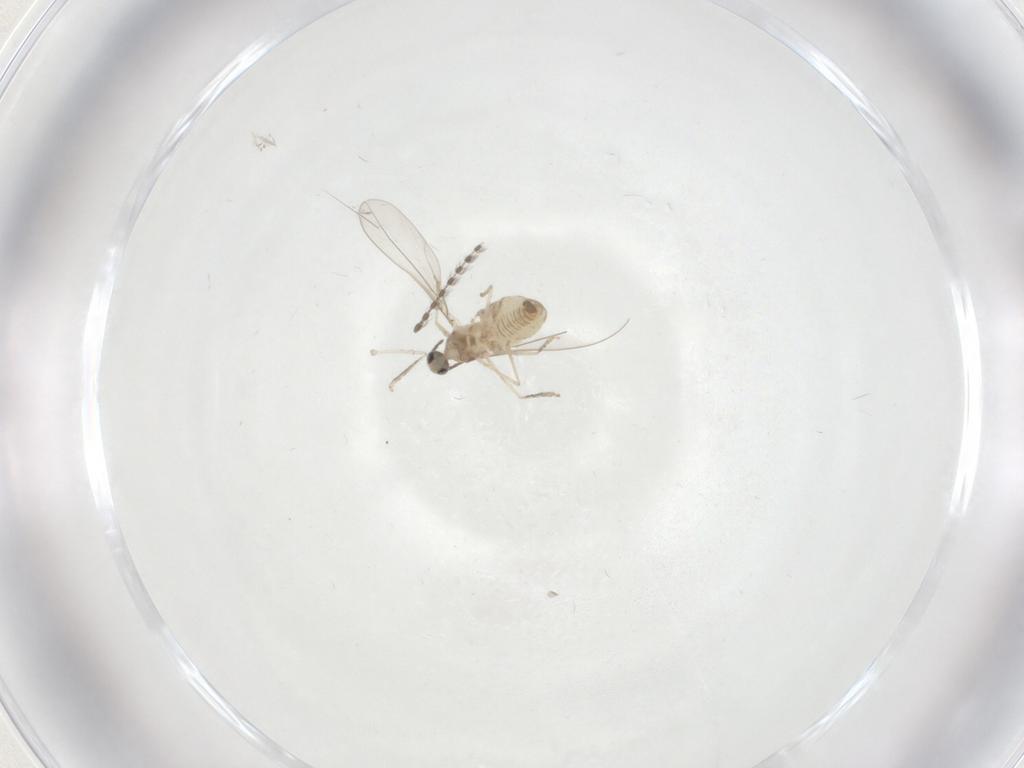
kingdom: Animalia
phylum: Arthropoda
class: Insecta
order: Diptera
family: Cecidomyiidae
